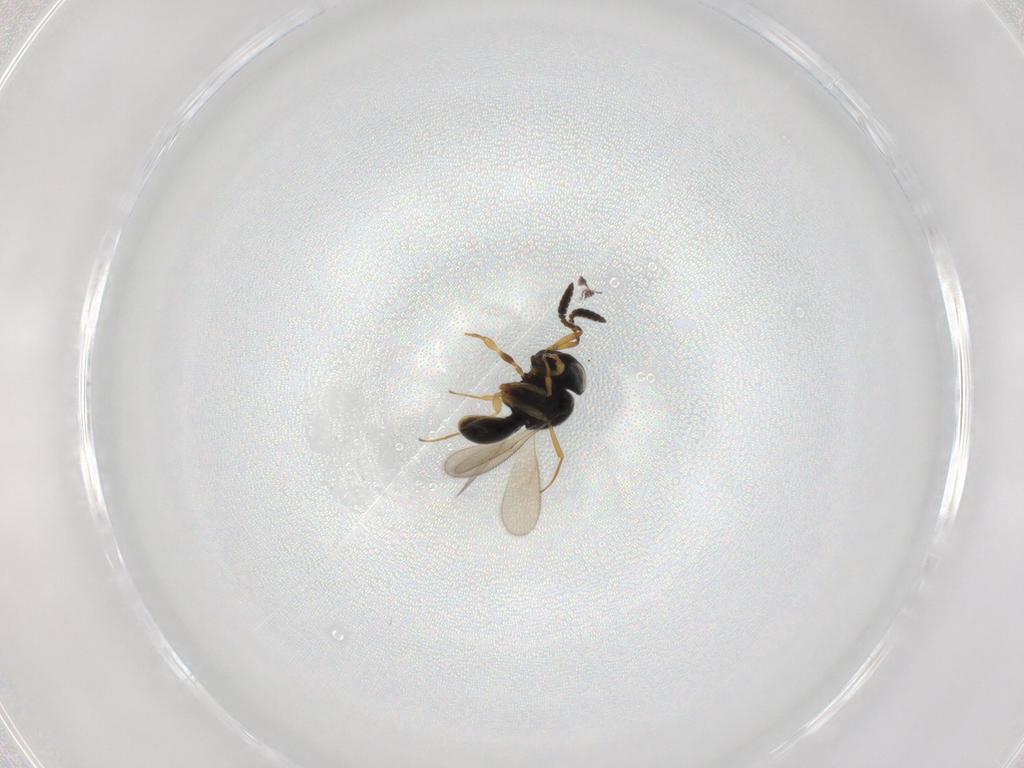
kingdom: Animalia
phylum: Arthropoda
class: Insecta
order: Hymenoptera
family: Scelionidae
